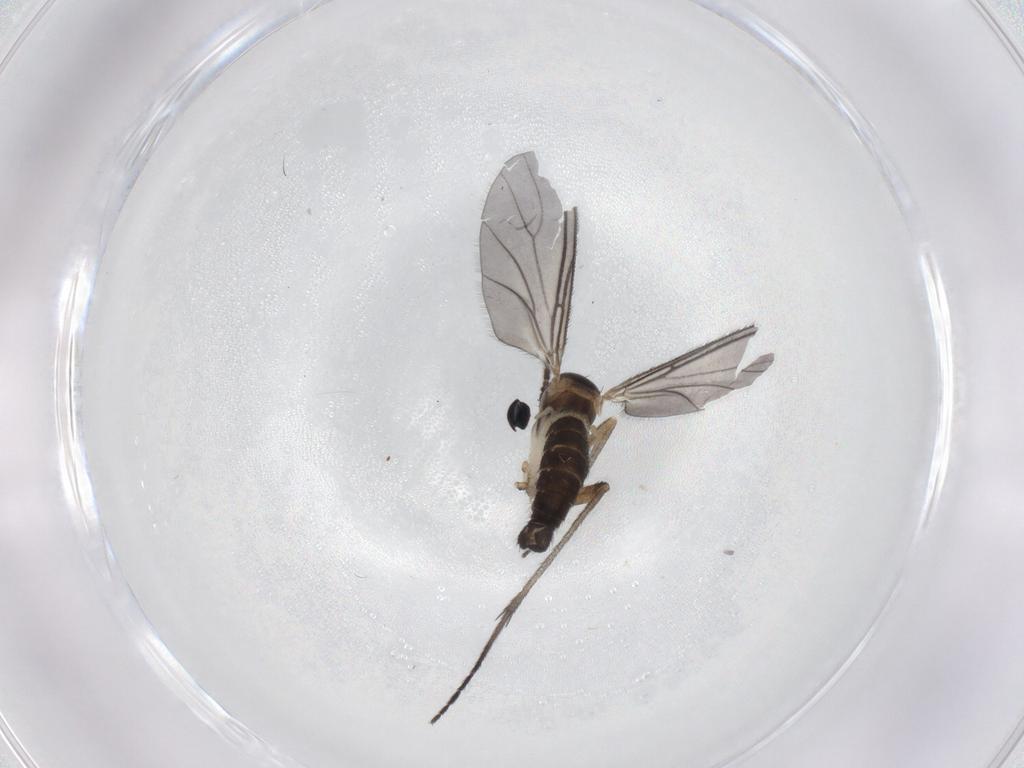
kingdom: Animalia
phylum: Arthropoda
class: Insecta
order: Diptera
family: Sciaridae
